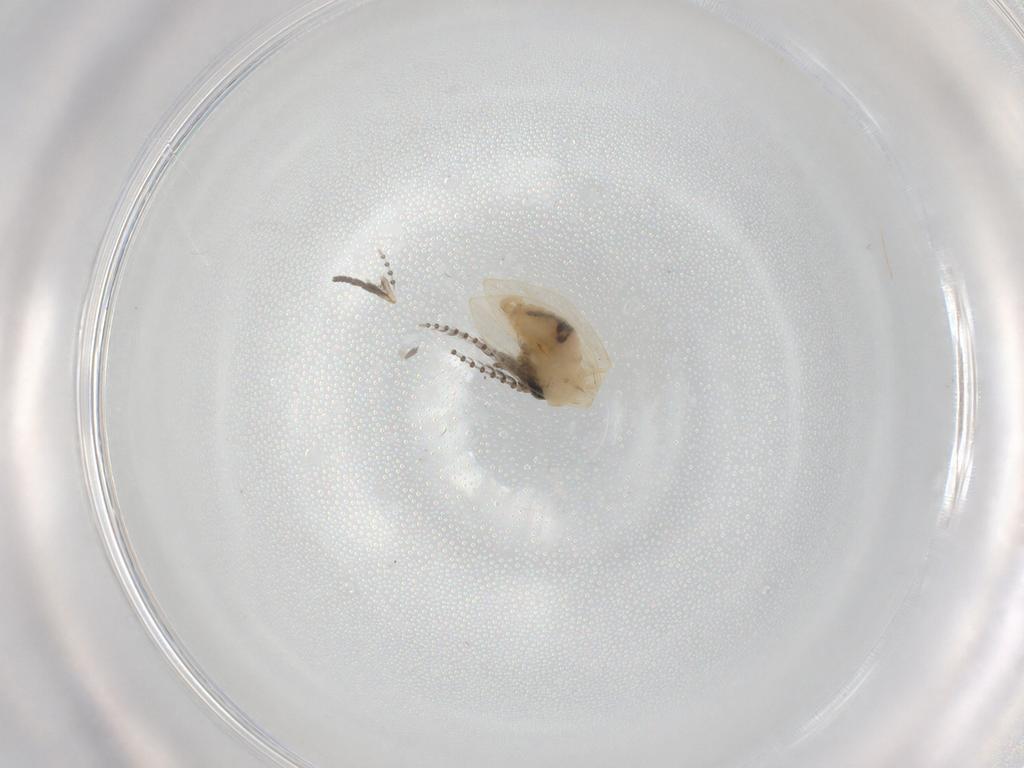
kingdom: Animalia
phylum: Arthropoda
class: Insecta
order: Diptera
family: Psychodidae
